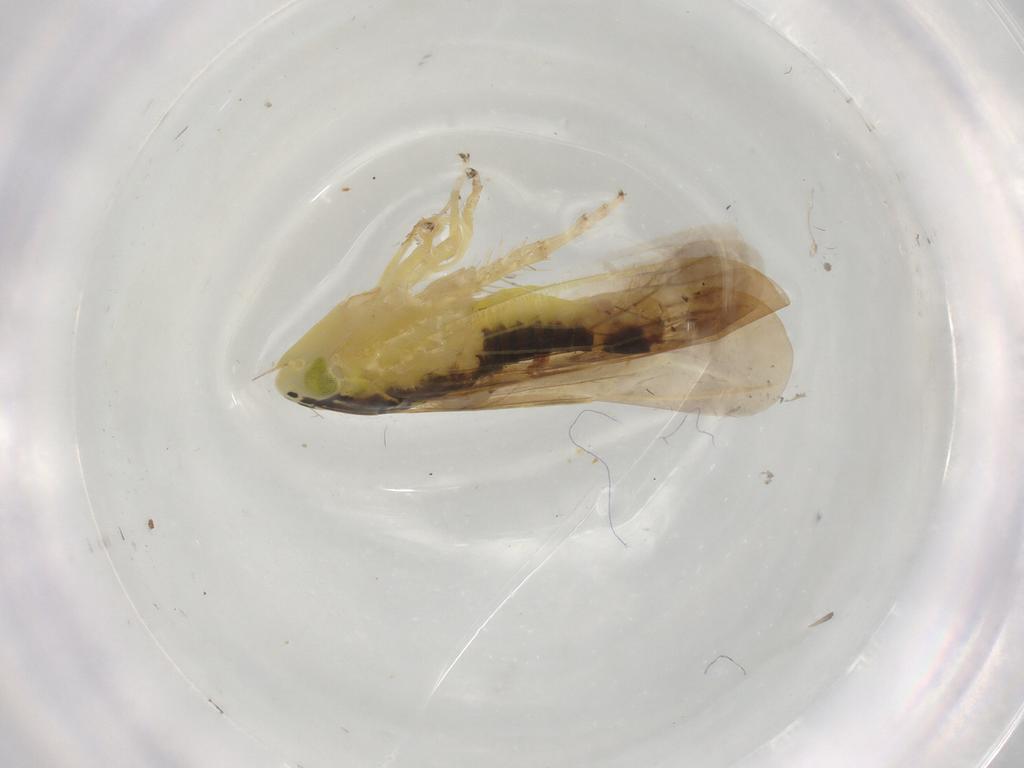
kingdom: Animalia
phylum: Arthropoda
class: Insecta
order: Hemiptera
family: Cicadellidae
